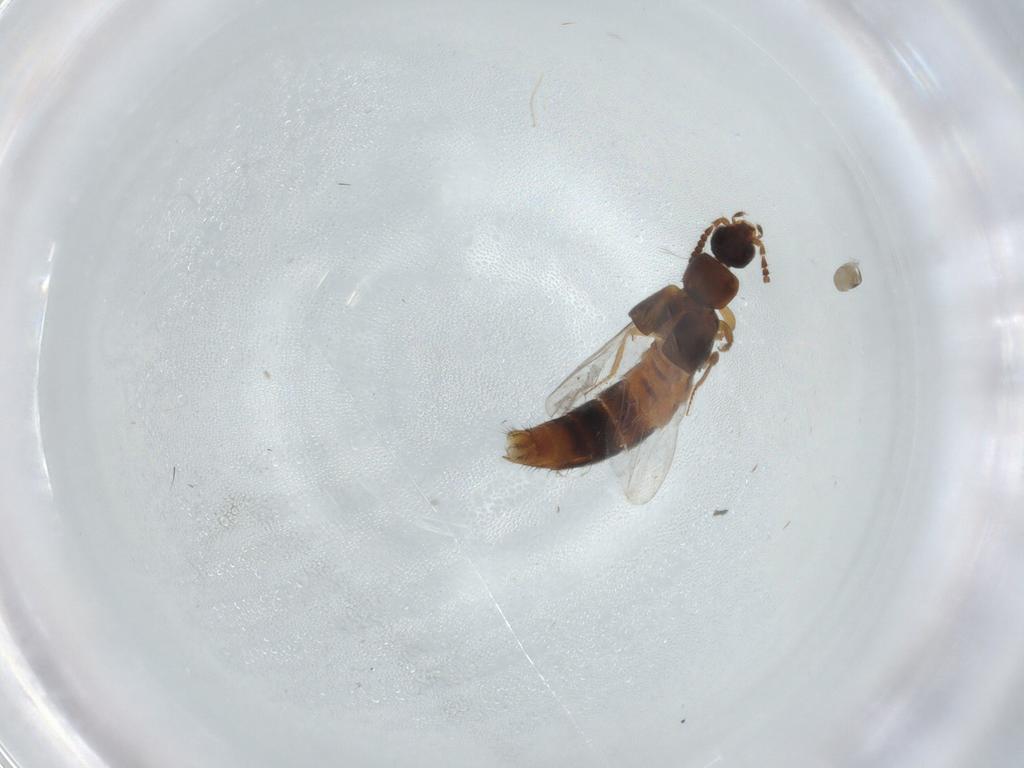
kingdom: Animalia
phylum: Arthropoda
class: Insecta
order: Coleoptera
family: Staphylinidae
